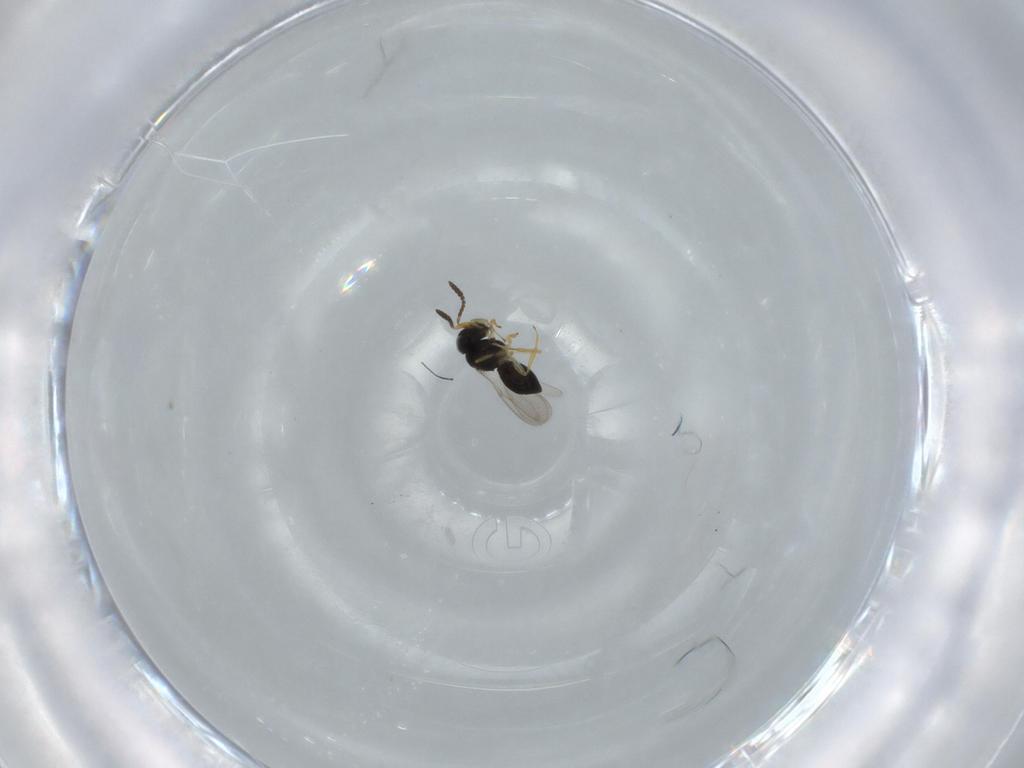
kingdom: Animalia
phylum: Arthropoda
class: Insecta
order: Hymenoptera
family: Scelionidae
